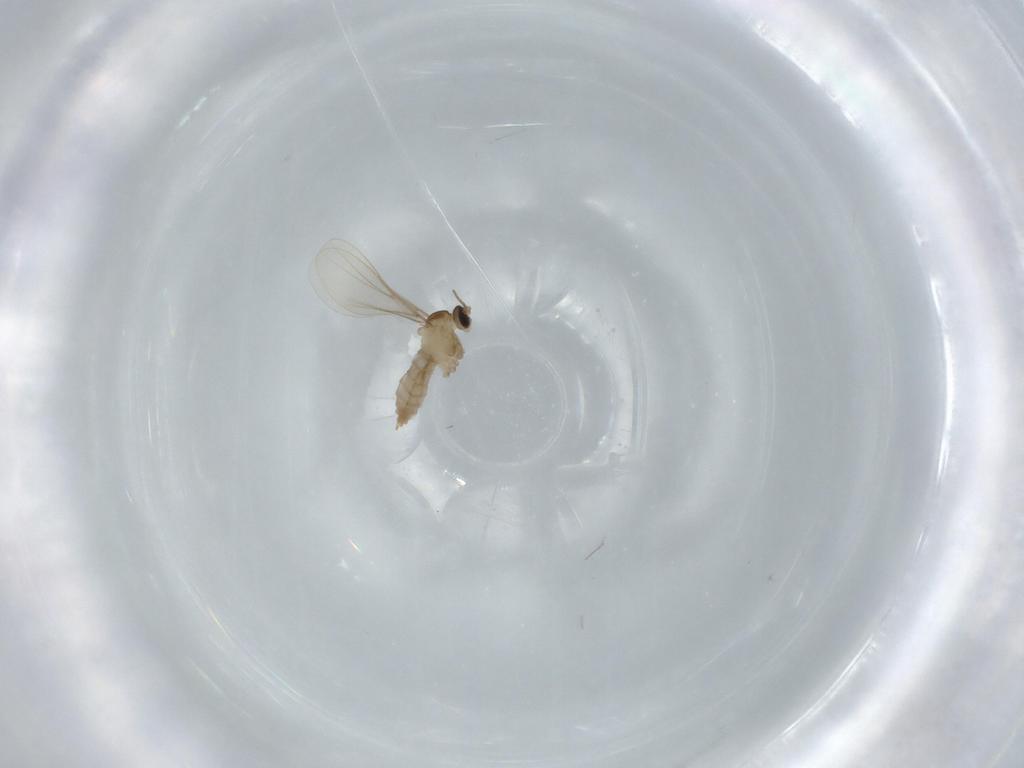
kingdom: Animalia
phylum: Arthropoda
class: Insecta
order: Diptera
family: Cecidomyiidae
